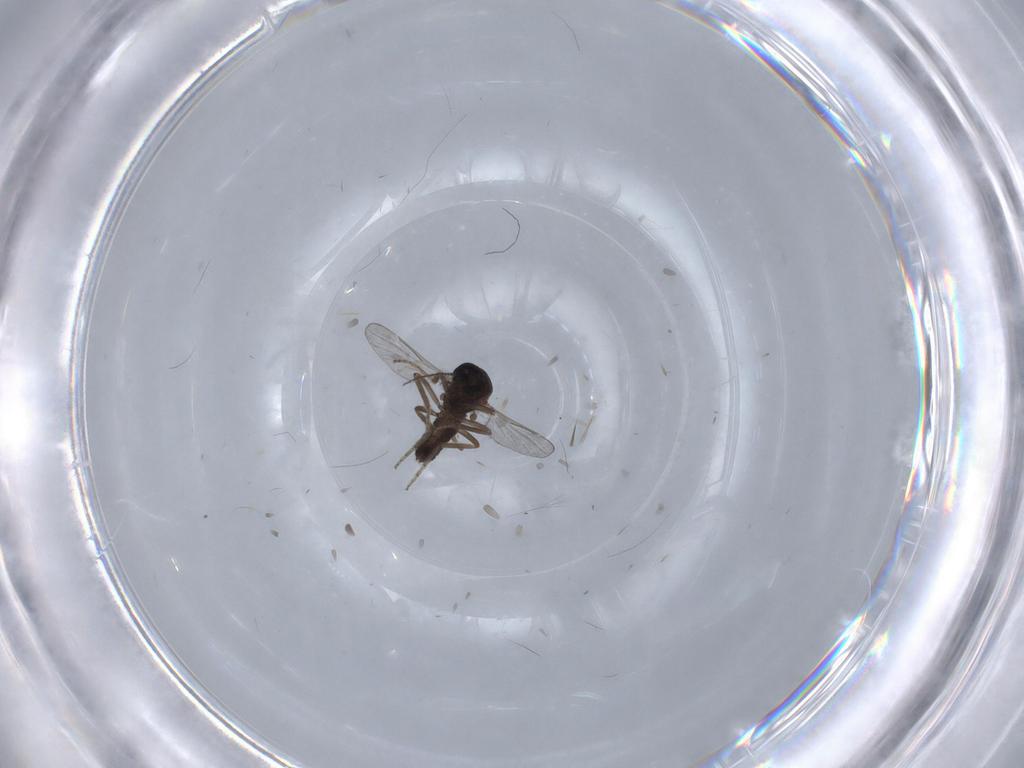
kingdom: Animalia
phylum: Arthropoda
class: Insecta
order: Diptera
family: Ceratopogonidae
